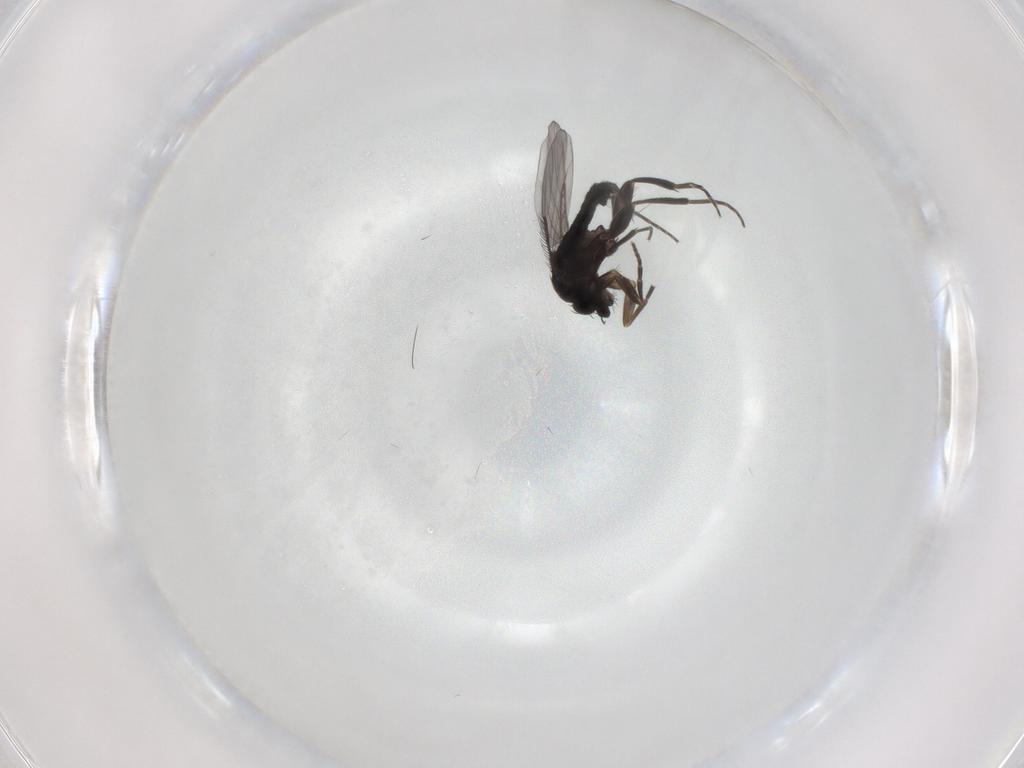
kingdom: Animalia
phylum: Arthropoda
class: Insecta
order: Diptera
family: Phoridae
